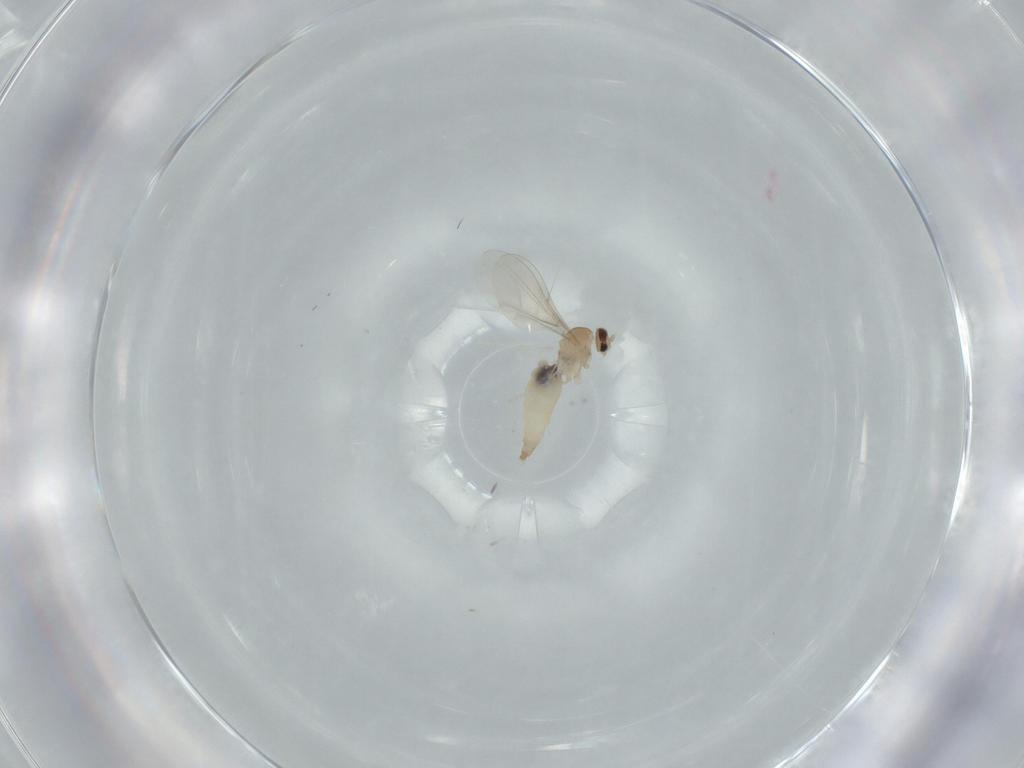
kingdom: Animalia
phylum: Arthropoda
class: Insecta
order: Diptera
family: Cecidomyiidae
